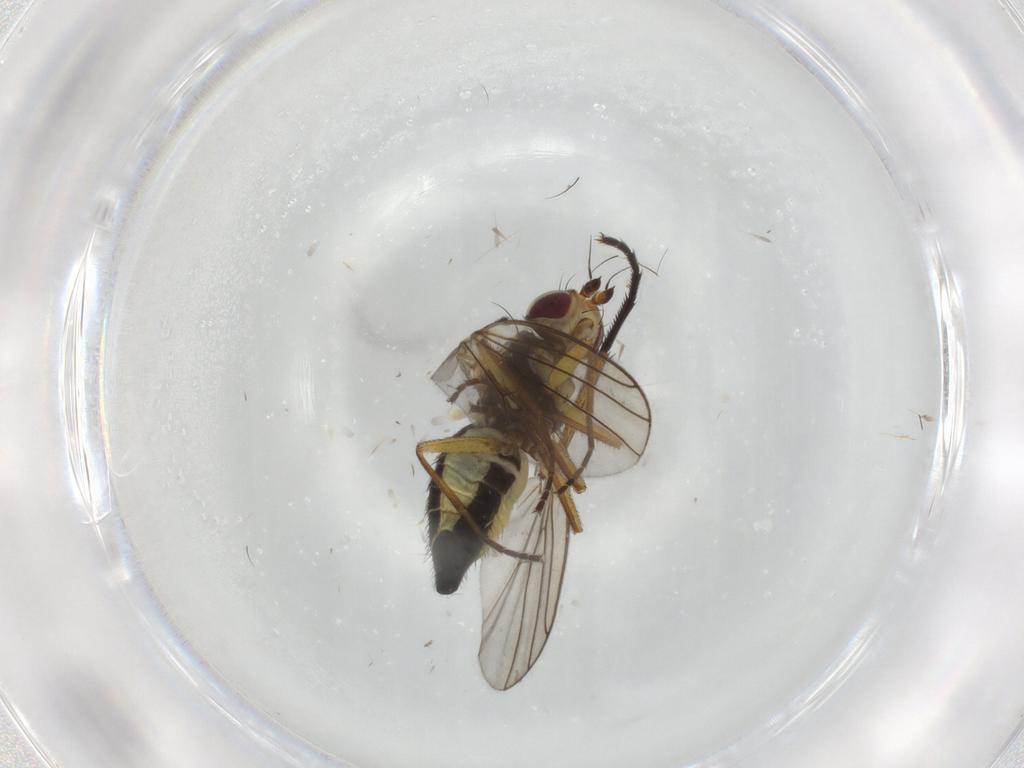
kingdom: Animalia
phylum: Arthropoda
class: Insecta
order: Diptera
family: Agromyzidae
